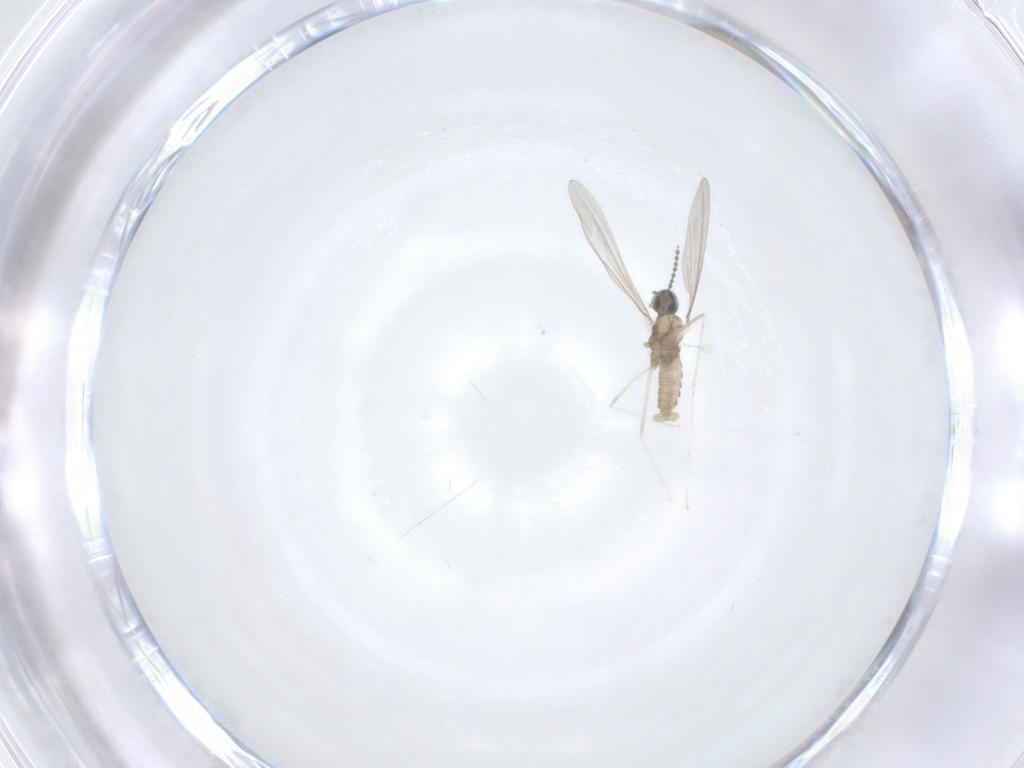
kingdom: Animalia
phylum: Arthropoda
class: Insecta
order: Diptera
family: Cecidomyiidae
